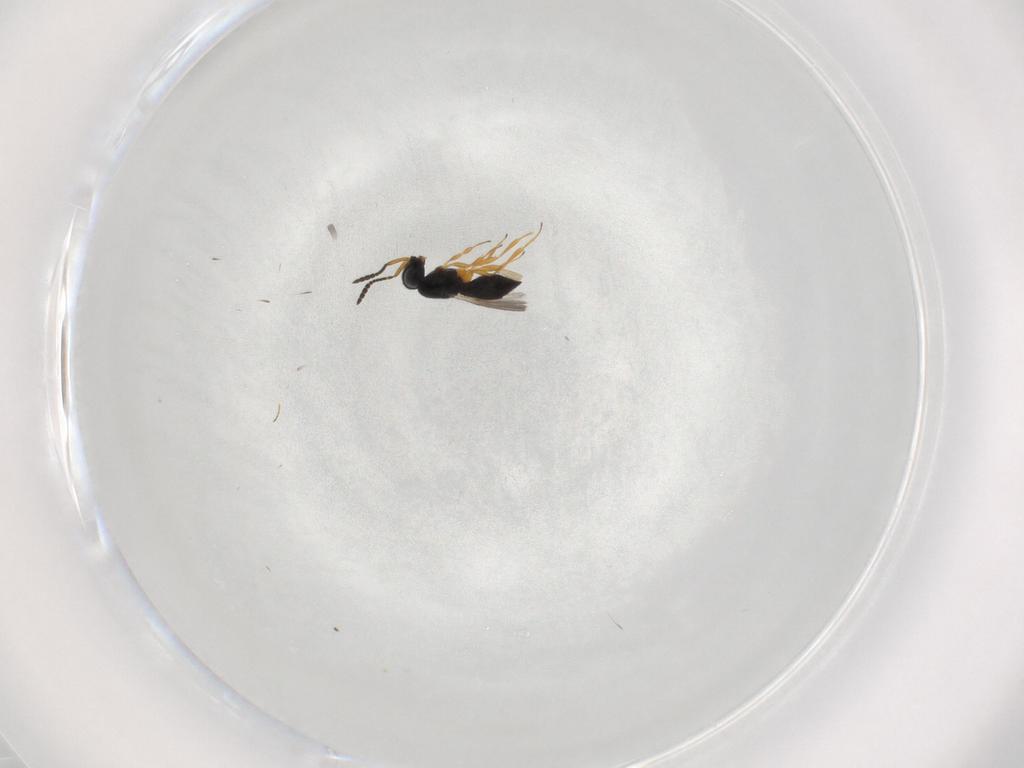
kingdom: Animalia
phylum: Arthropoda
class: Insecta
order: Hymenoptera
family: Scelionidae
